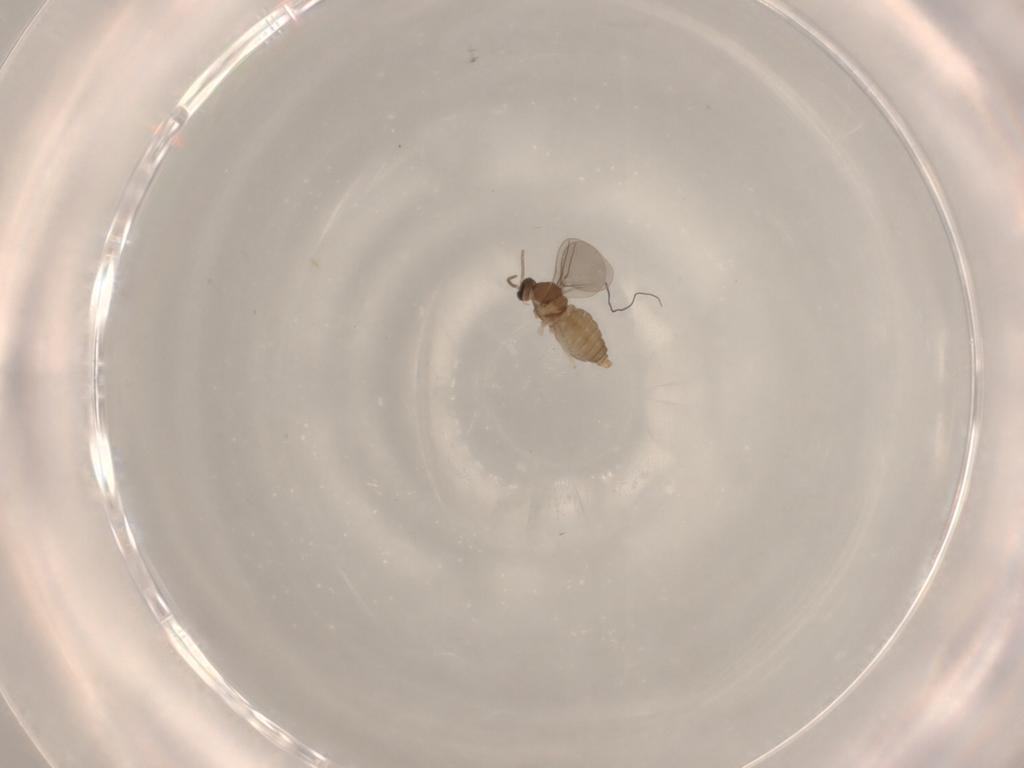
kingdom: Animalia
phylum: Arthropoda
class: Insecta
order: Diptera
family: Cecidomyiidae
